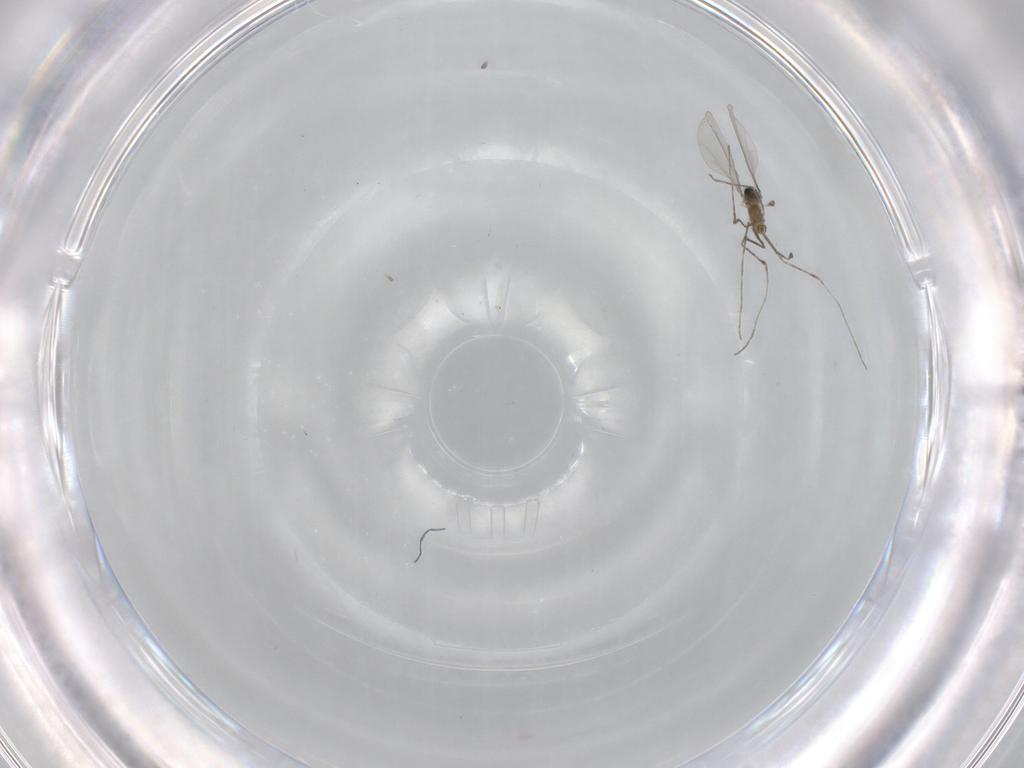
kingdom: Animalia
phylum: Arthropoda
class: Insecta
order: Diptera
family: Cecidomyiidae
